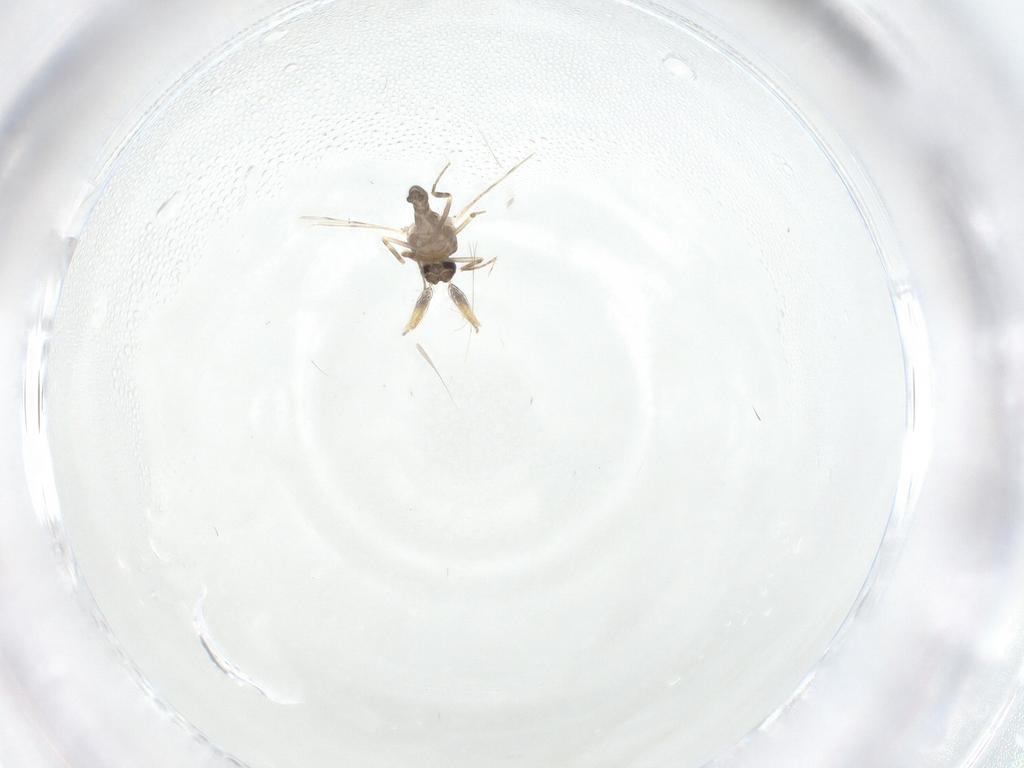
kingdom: Animalia
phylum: Arthropoda
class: Insecta
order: Diptera
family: Ceratopogonidae
